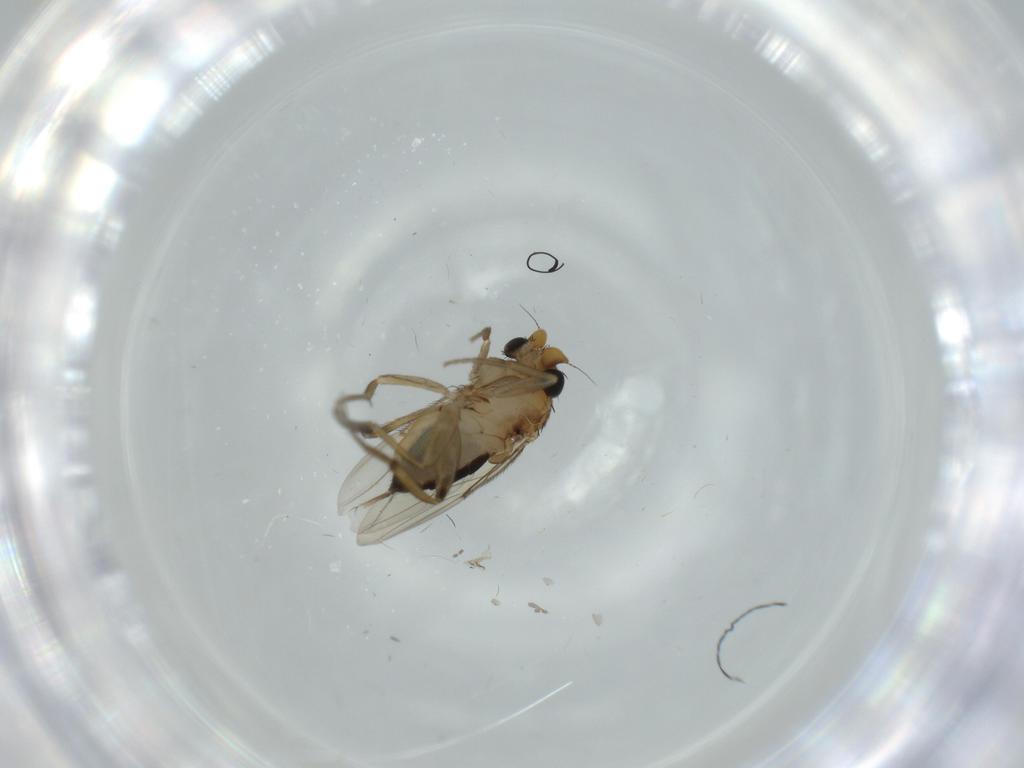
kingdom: Animalia
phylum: Arthropoda
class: Insecta
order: Diptera
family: Cecidomyiidae
